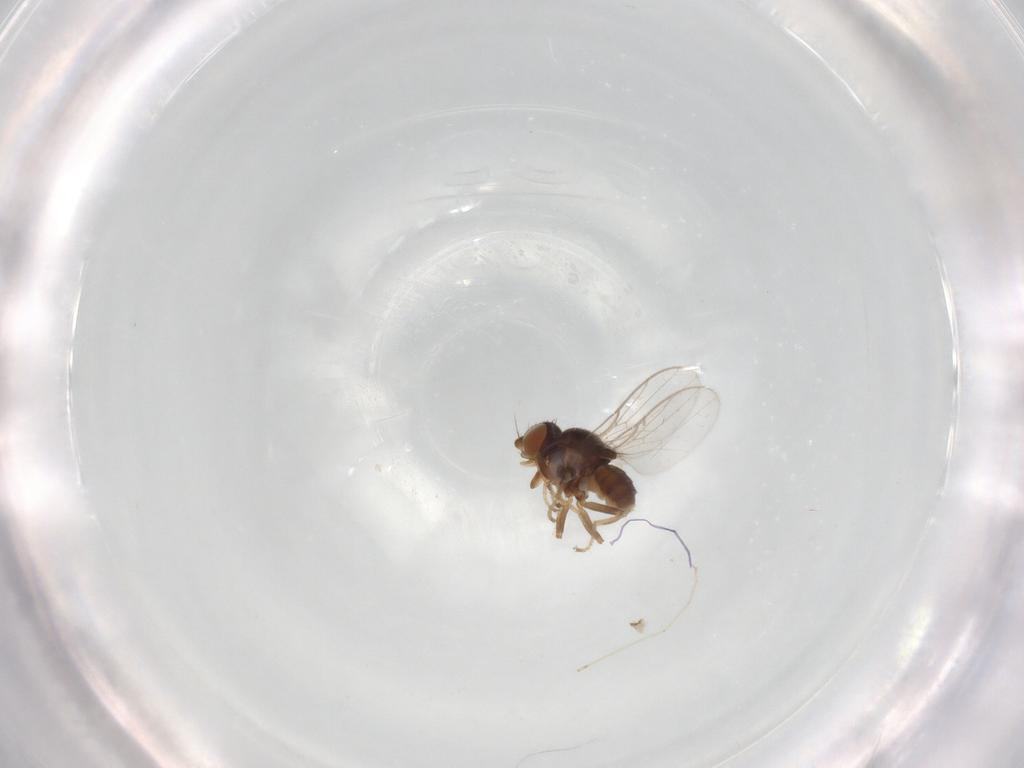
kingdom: Animalia
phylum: Arthropoda
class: Insecta
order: Diptera
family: Chloropidae
